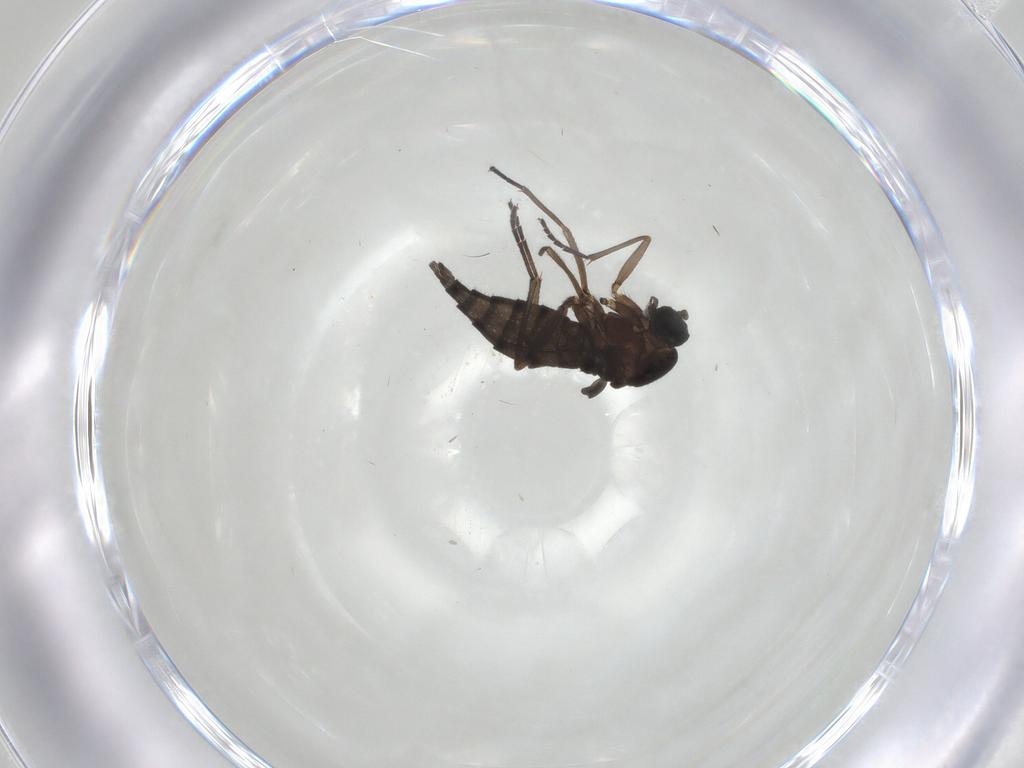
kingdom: Animalia
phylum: Arthropoda
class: Insecta
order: Diptera
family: Sciaridae
